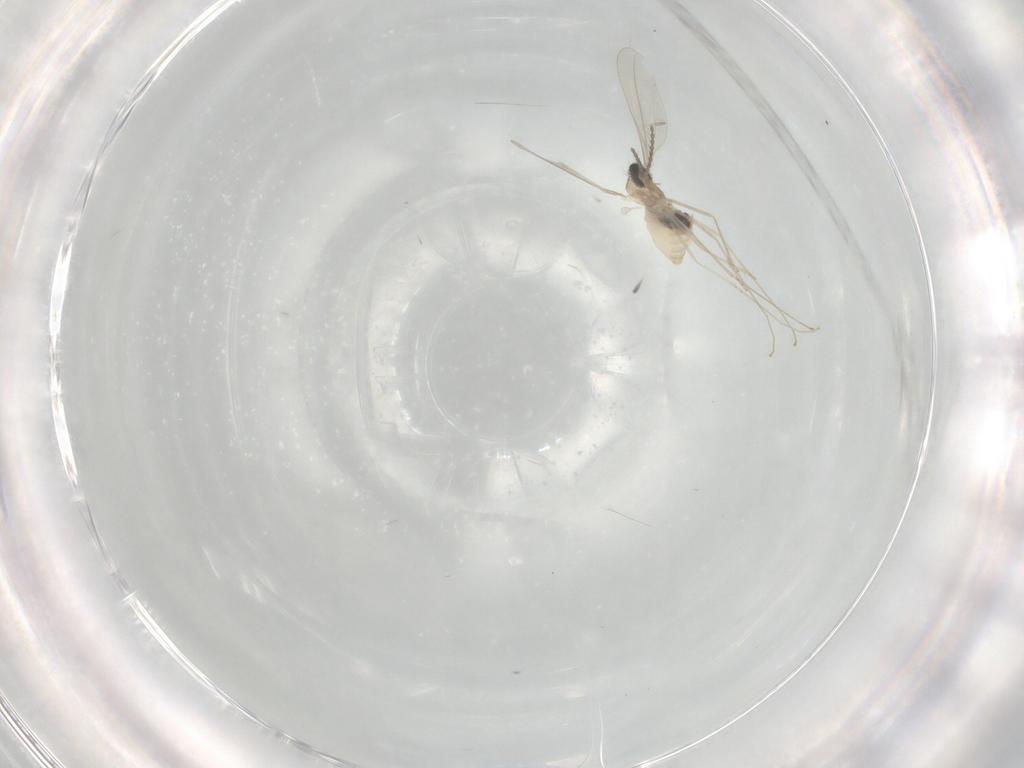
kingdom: Animalia
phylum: Arthropoda
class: Insecta
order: Diptera
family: Cecidomyiidae
